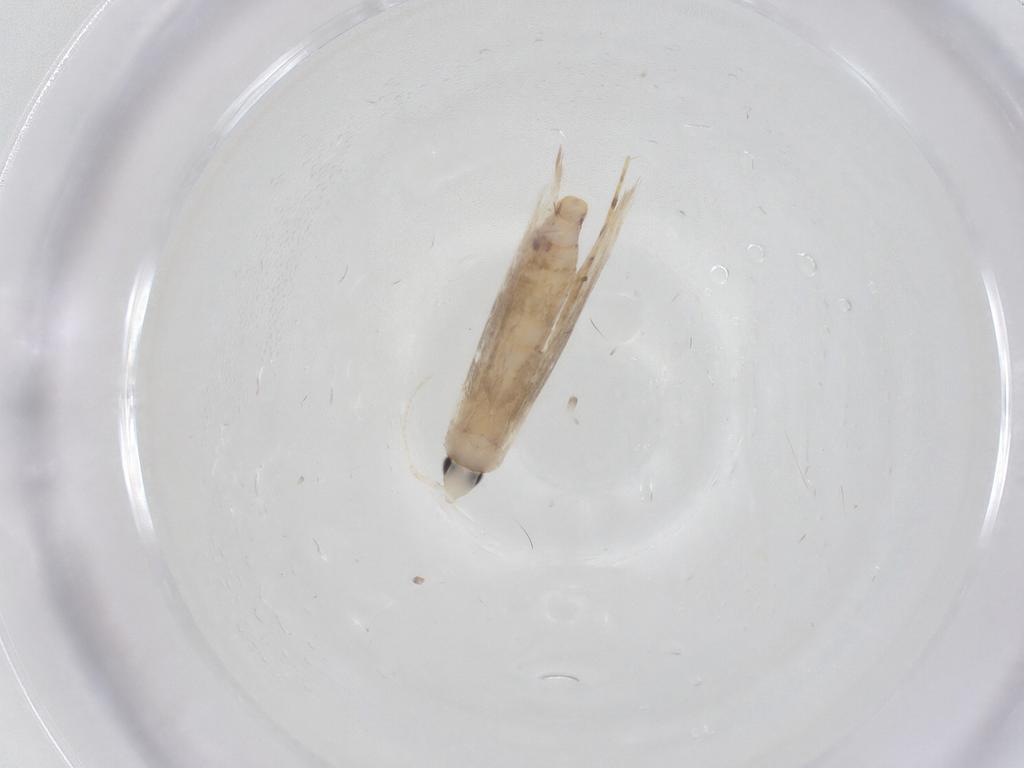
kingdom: Animalia
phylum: Arthropoda
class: Insecta
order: Lepidoptera
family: Tineidae
